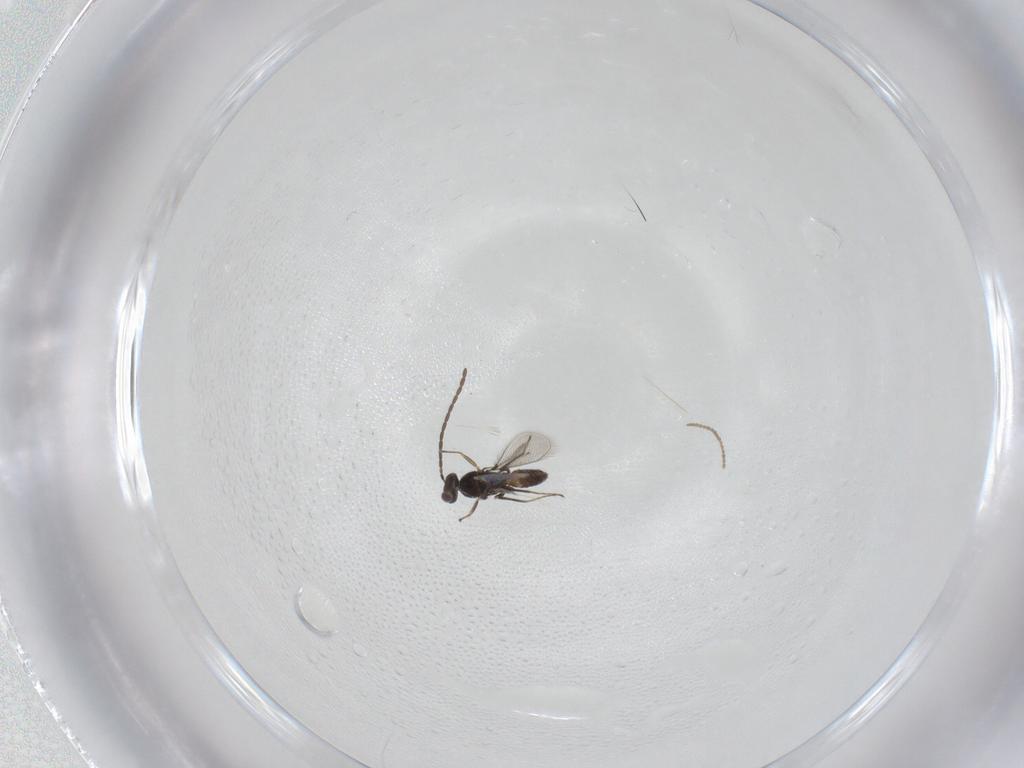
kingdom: Animalia
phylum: Arthropoda
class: Insecta
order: Hymenoptera
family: Mymaridae
